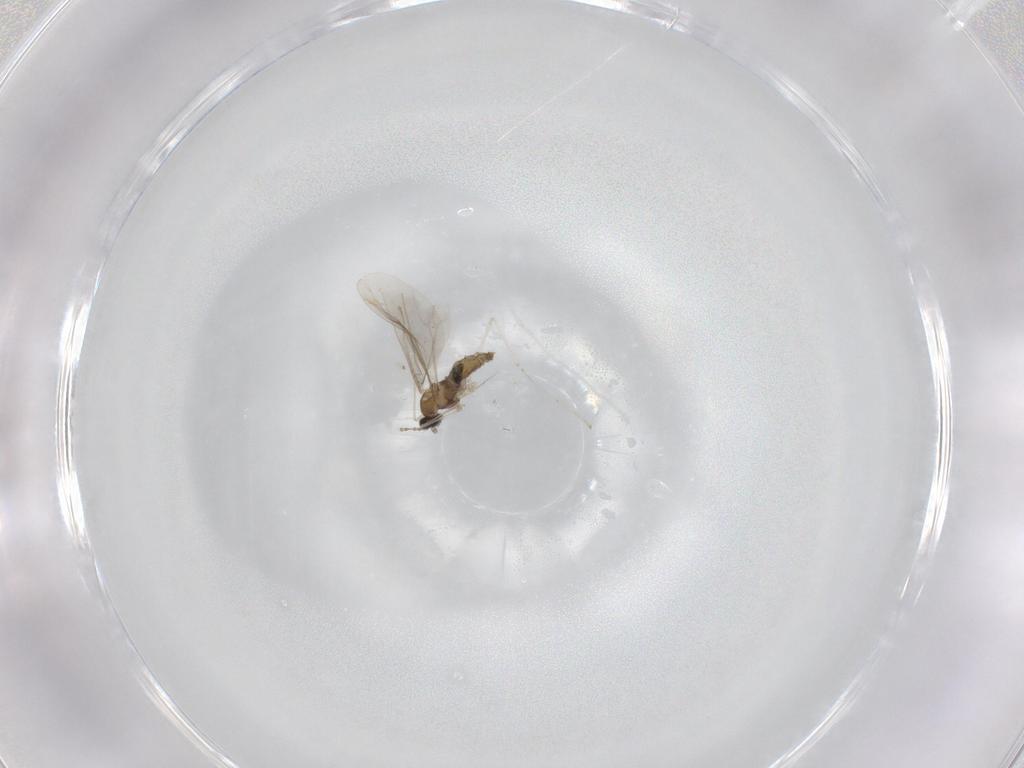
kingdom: Animalia
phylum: Arthropoda
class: Insecta
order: Diptera
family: Cecidomyiidae
